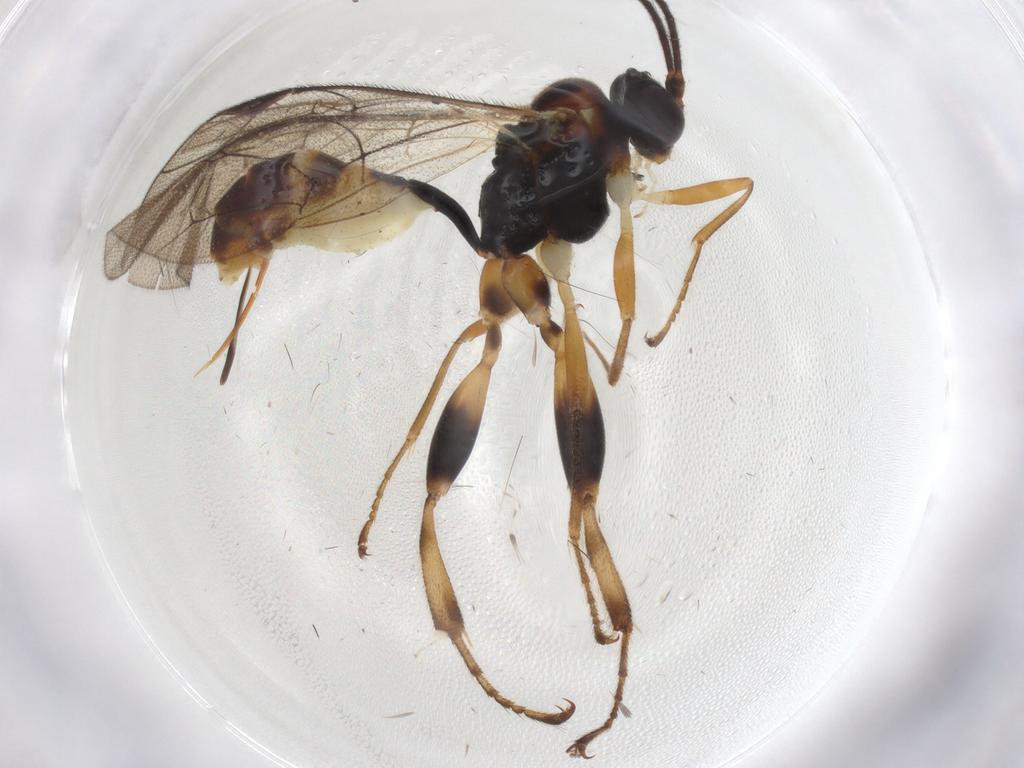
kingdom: Animalia
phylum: Arthropoda
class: Insecta
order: Hymenoptera
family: Ichneumonidae
